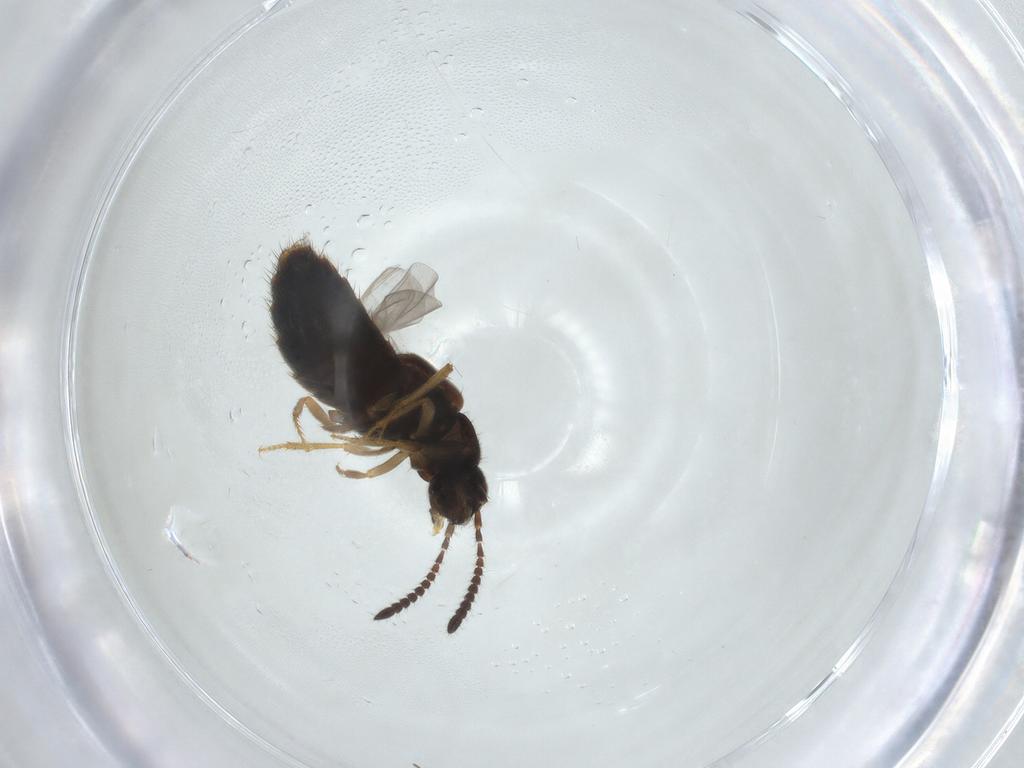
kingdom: Animalia
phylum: Arthropoda
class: Insecta
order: Coleoptera
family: Staphylinidae
